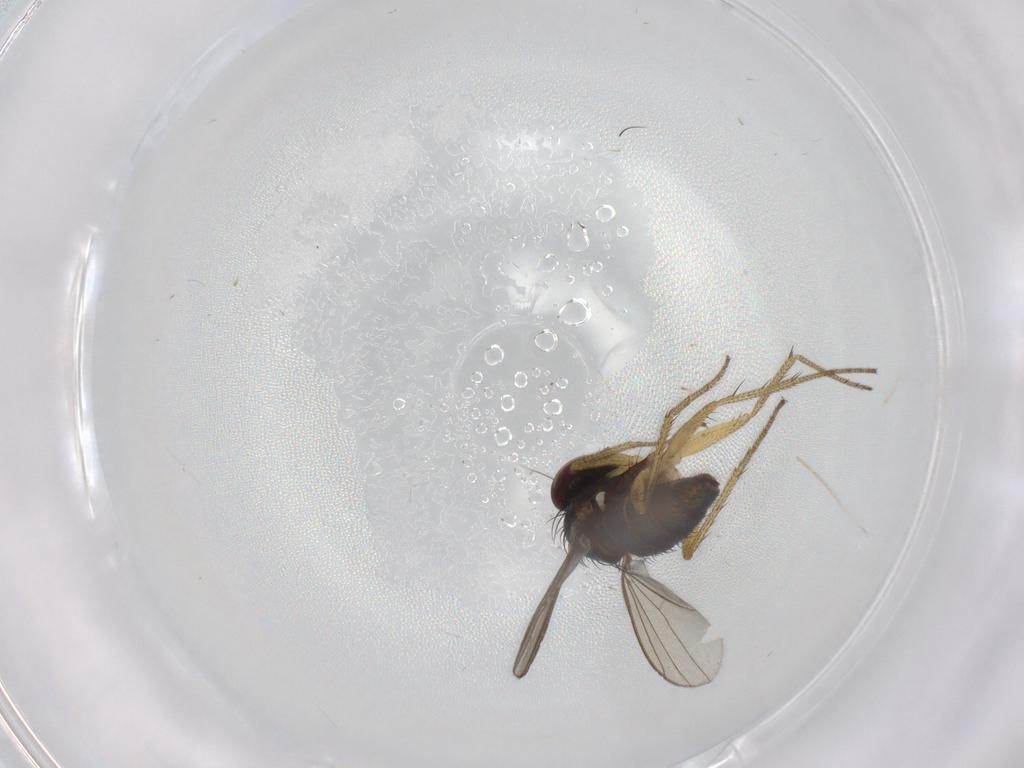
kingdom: Animalia
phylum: Arthropoda
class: Insecta
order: Diptera
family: Dolichopodidae
